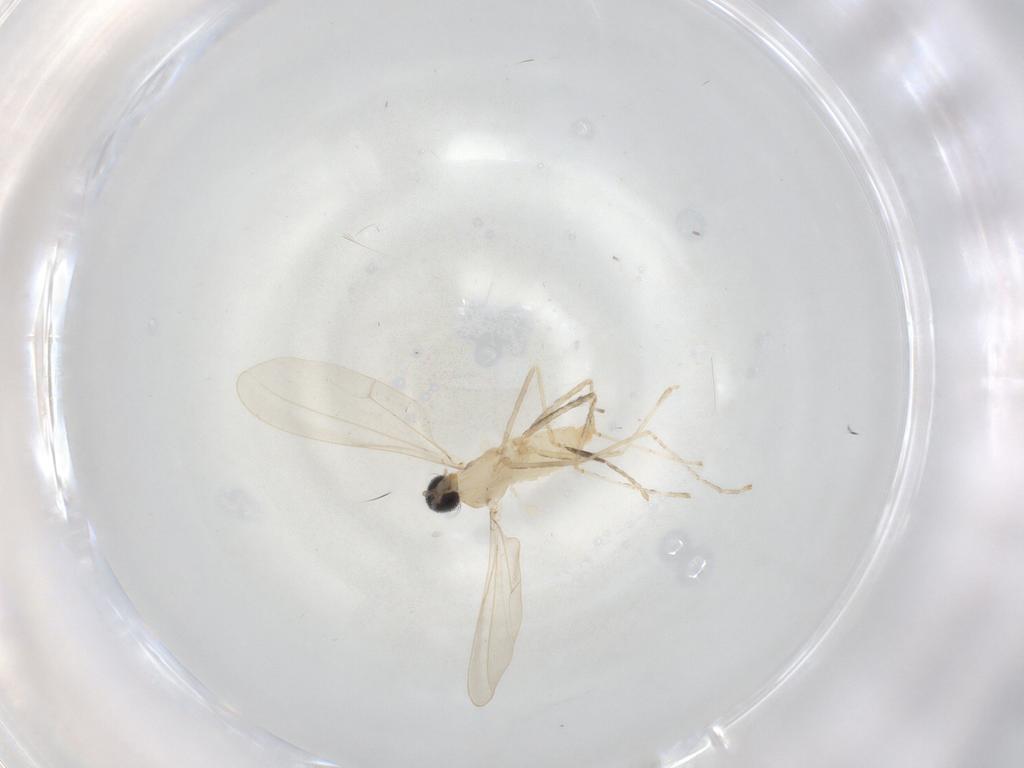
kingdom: Animalia
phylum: Arthropoda
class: Insecta
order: Diptera
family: Cecidomyiidae
